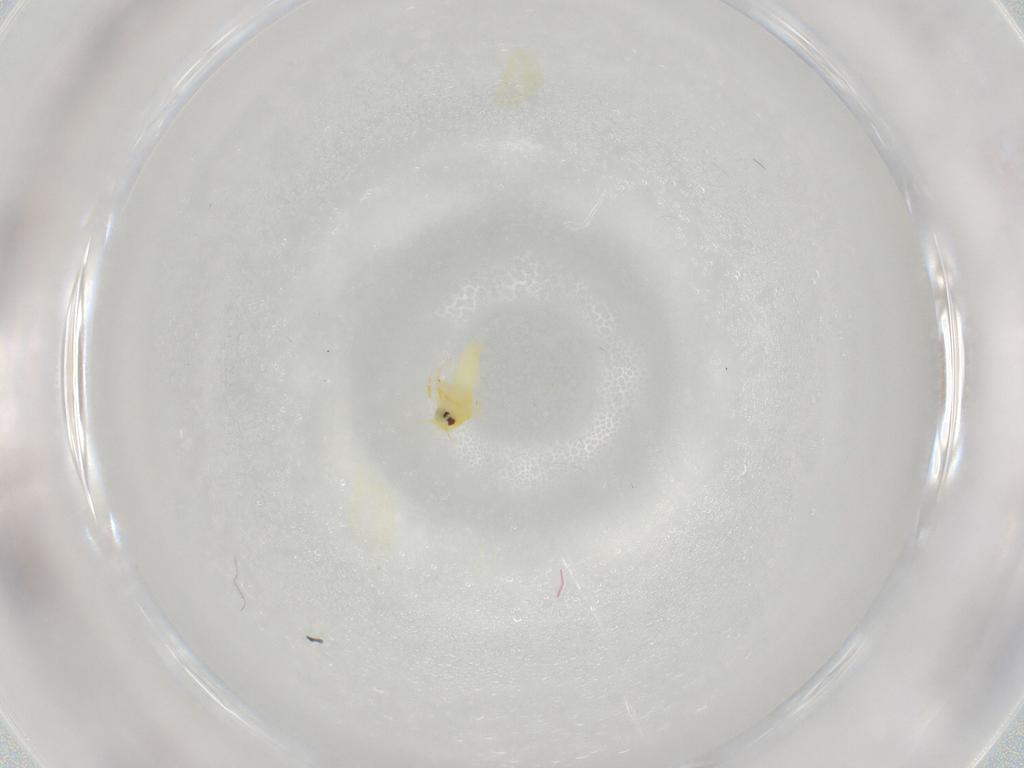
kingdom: Animalia
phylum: Arthropoda
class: Insecta
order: Hemiptera
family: Aleyrodidae
